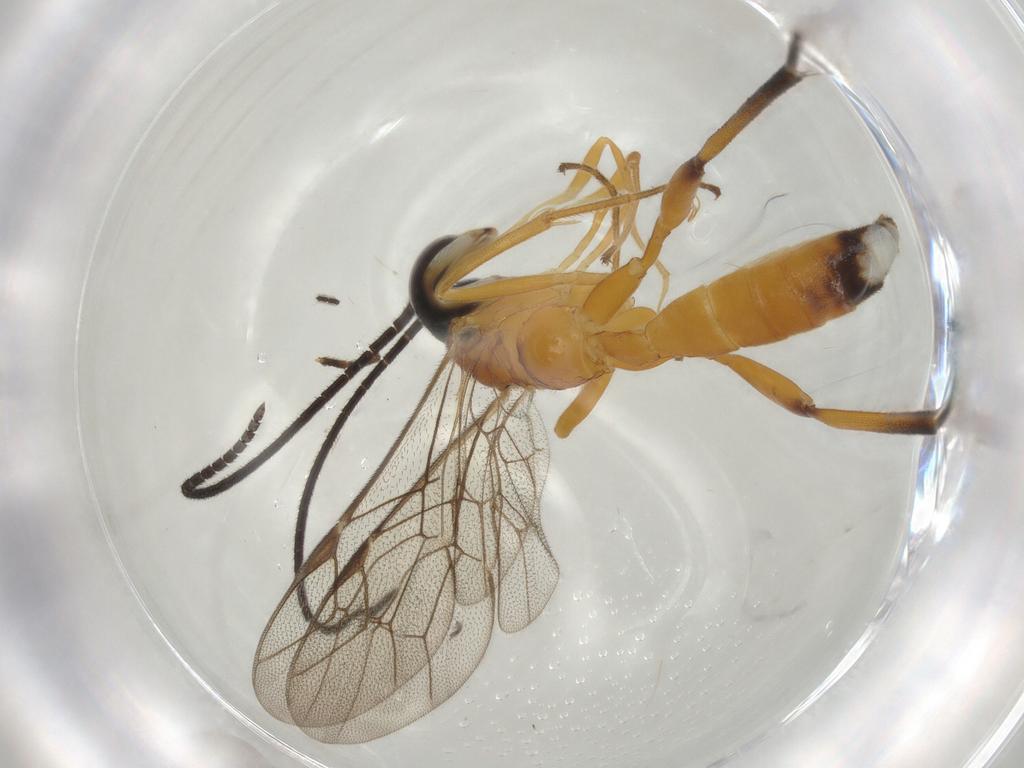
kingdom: Animalia
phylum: Arthropoda
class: Insecta
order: Hymenoptera
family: Ichneumonidae
